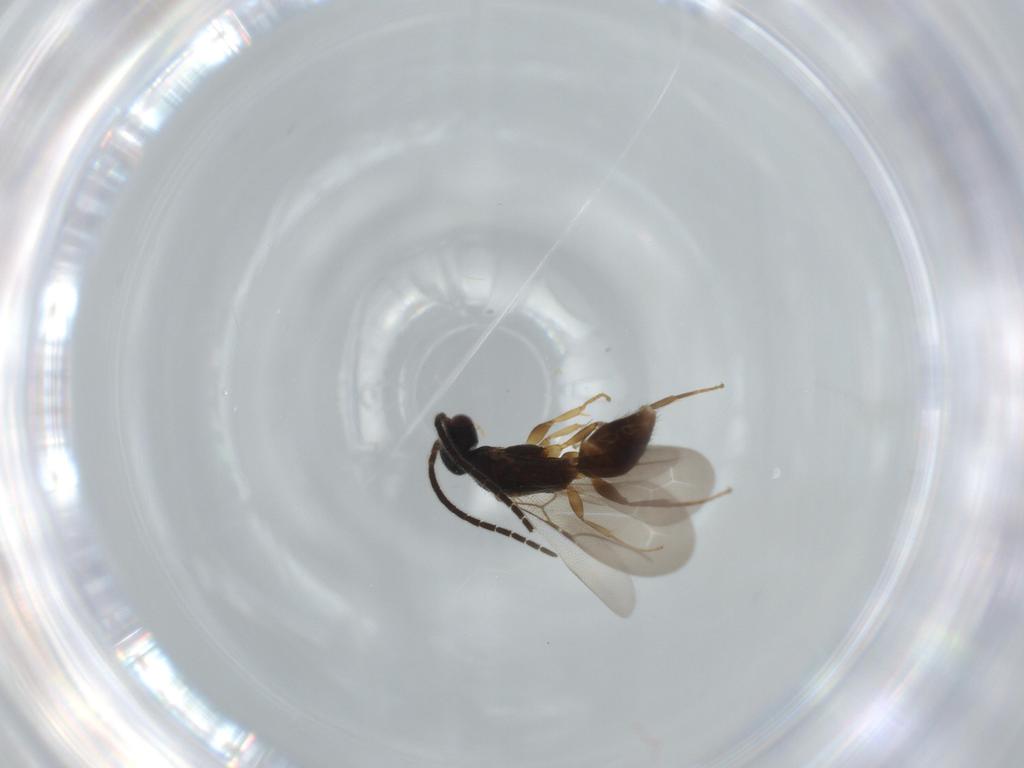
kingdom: Animalia
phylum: Arthropoda
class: Insecta
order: Hymenoptera
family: Bethylidae
